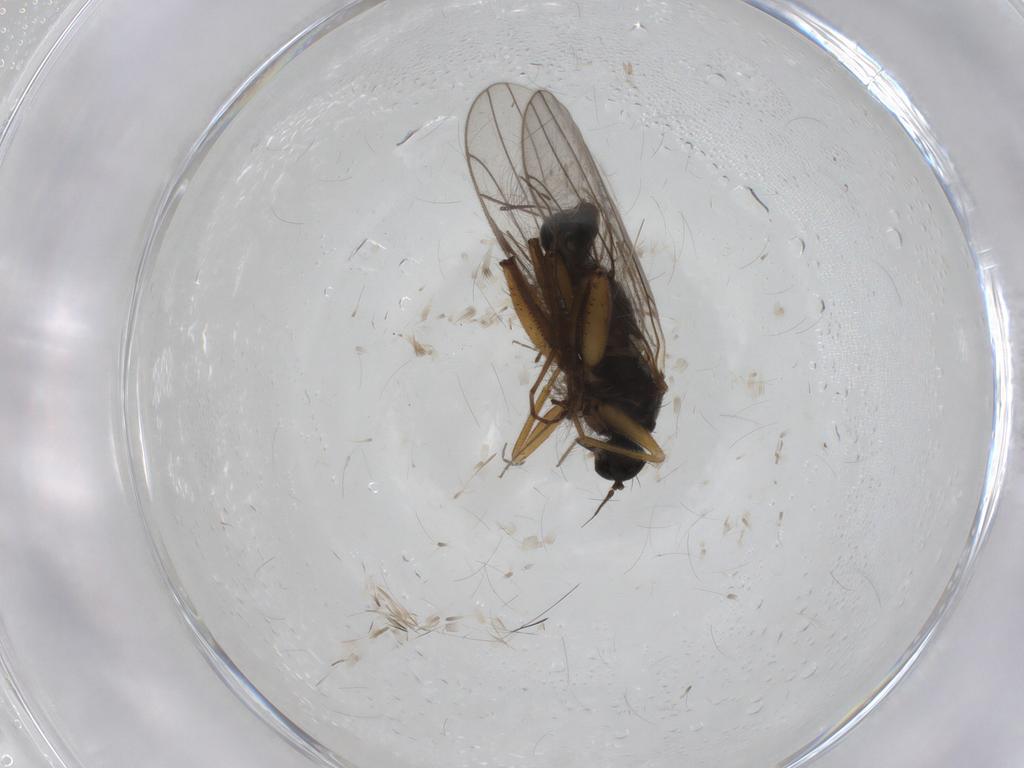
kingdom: Animalia
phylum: Arthropoda
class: Insecta
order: Diptera
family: Hybotidae
